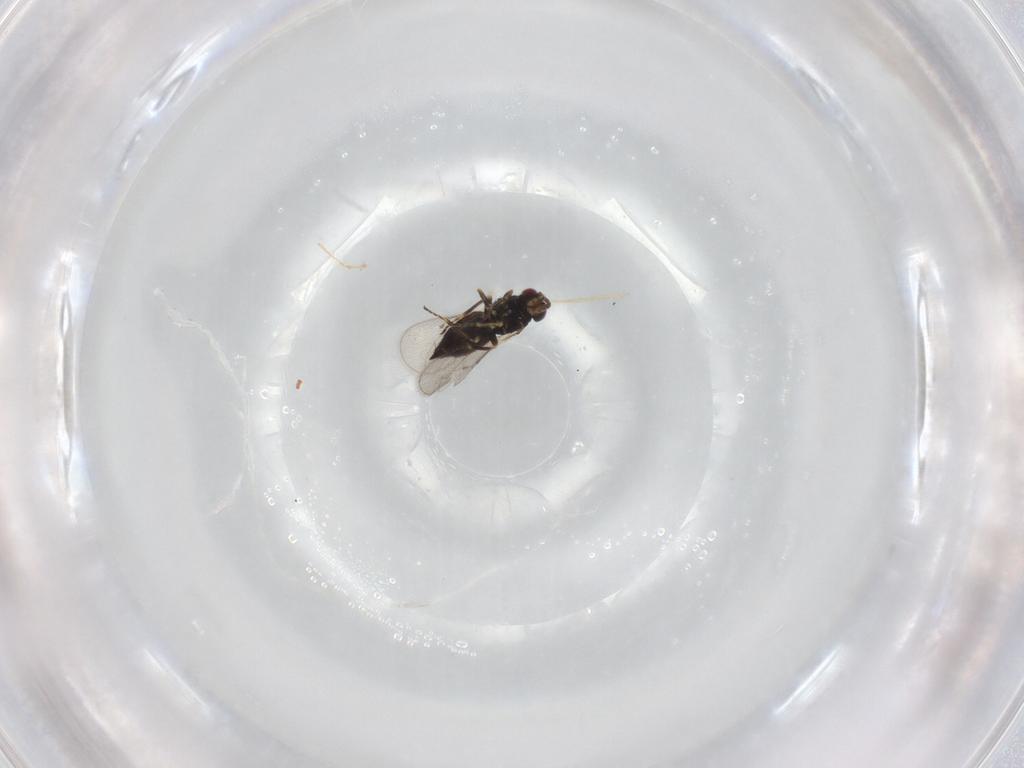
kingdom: Animalia
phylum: Arthropoda
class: Insecta
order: Hymenoptera
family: Eulophidae
